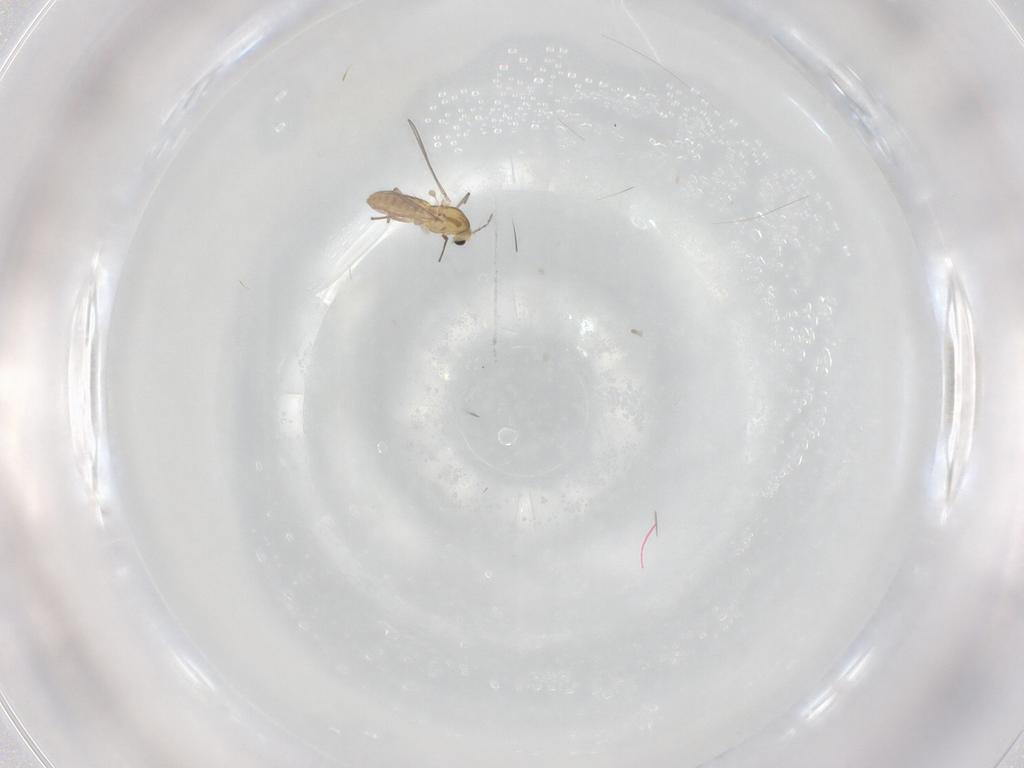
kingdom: Animalia
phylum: Arthropoda
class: Insecta
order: Diptera
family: Chironomidae
